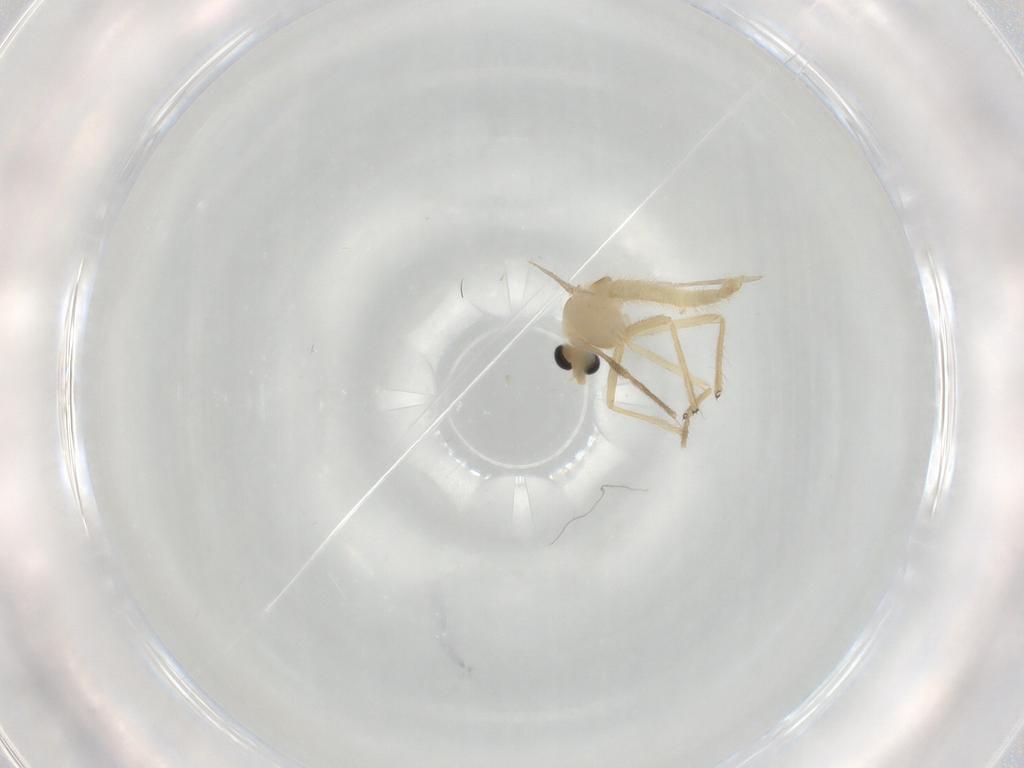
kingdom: Animalia
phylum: Arthropoda
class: Insecta
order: Diptera
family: Chironomidae
